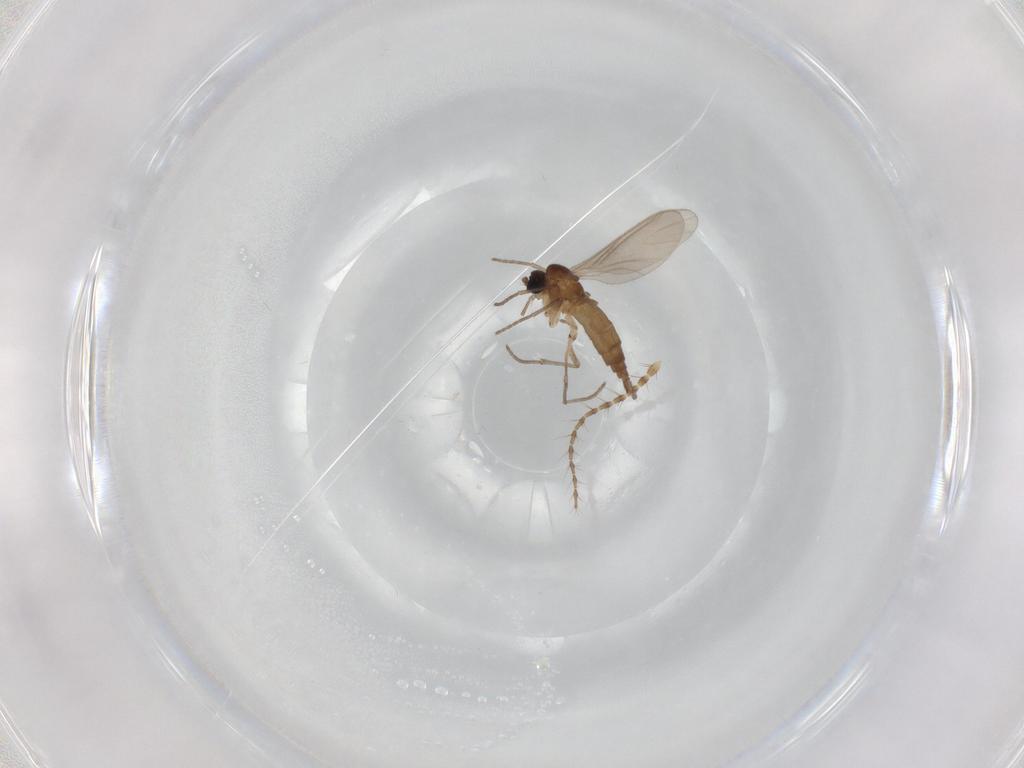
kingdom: Animalia
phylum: Arthropoda
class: Insecta
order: Diptera
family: Sciaridae
